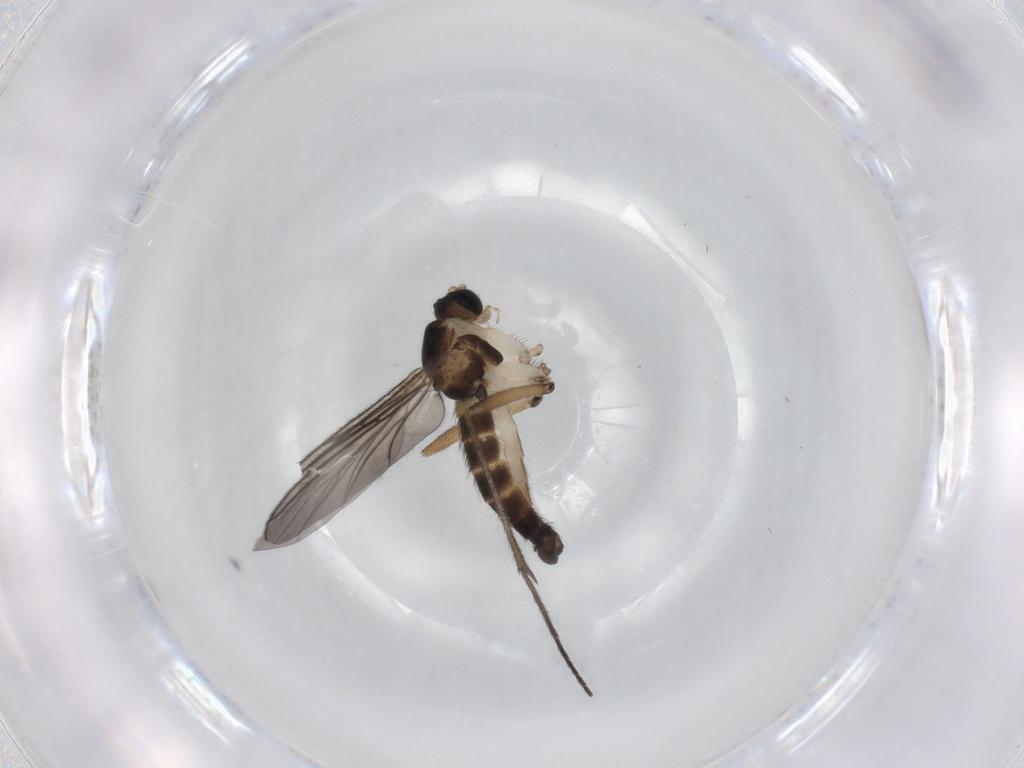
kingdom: Animalia
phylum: Arthropoda
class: Insecta
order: Diptera
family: Sciaridae
